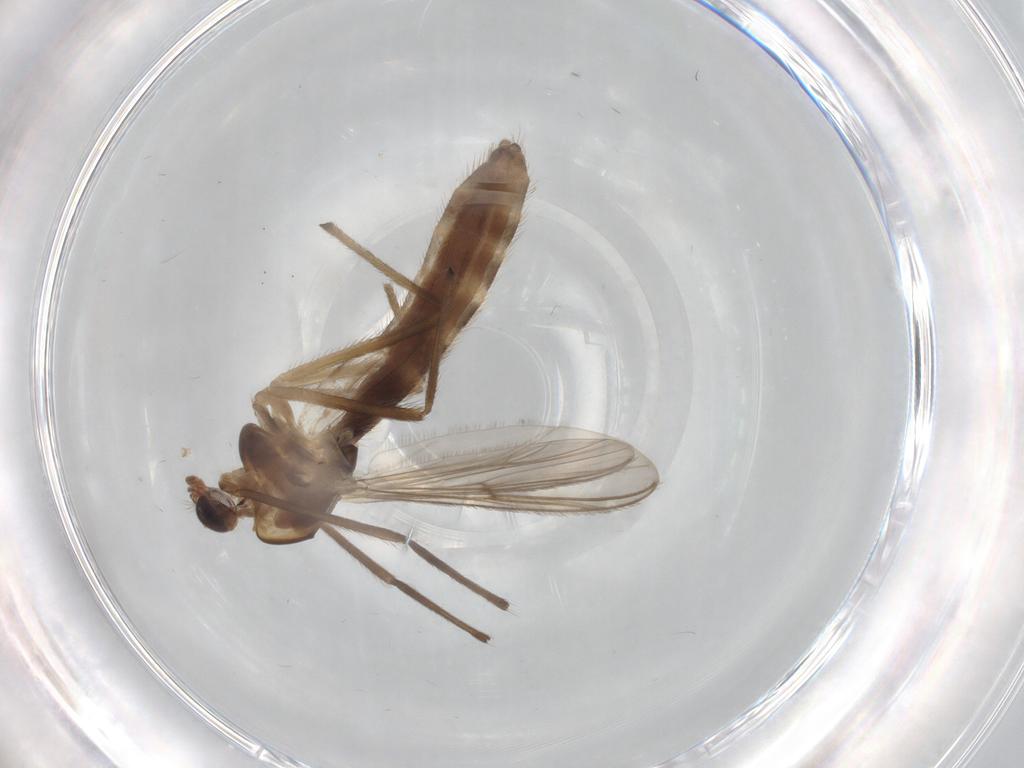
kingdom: Animalia
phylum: Arthropoda
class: Insecta
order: Diptera
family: Chironomidae
